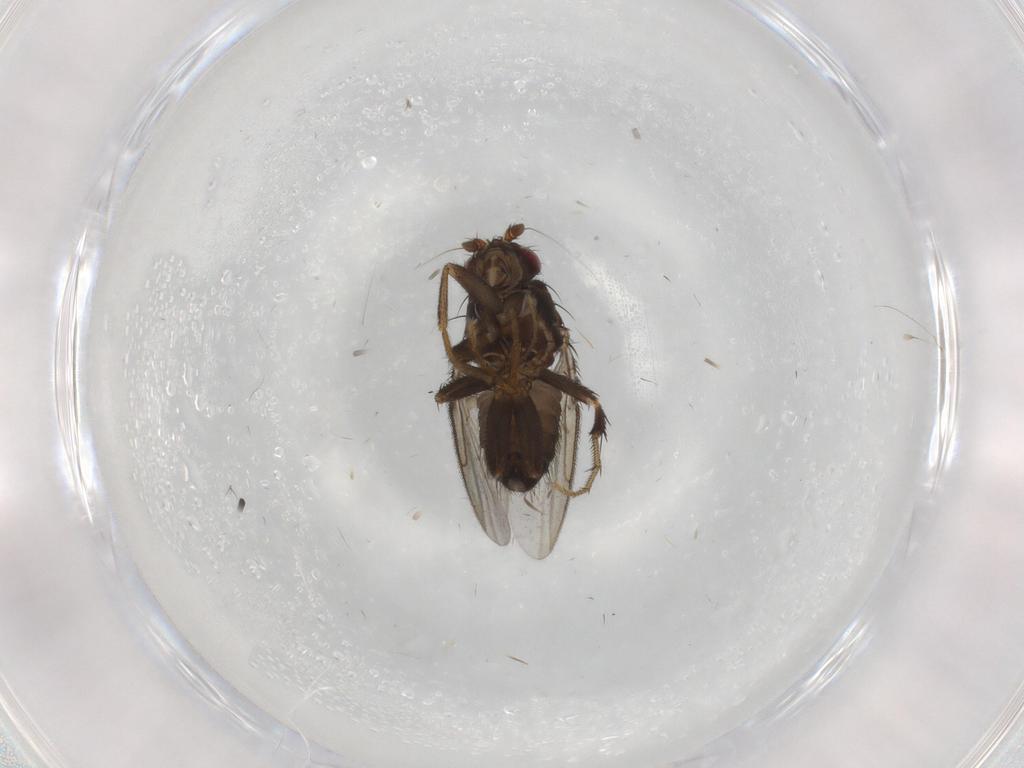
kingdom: Animalia
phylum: Arthropoda
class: Insecta
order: Diptera
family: Sphaeroceridae
